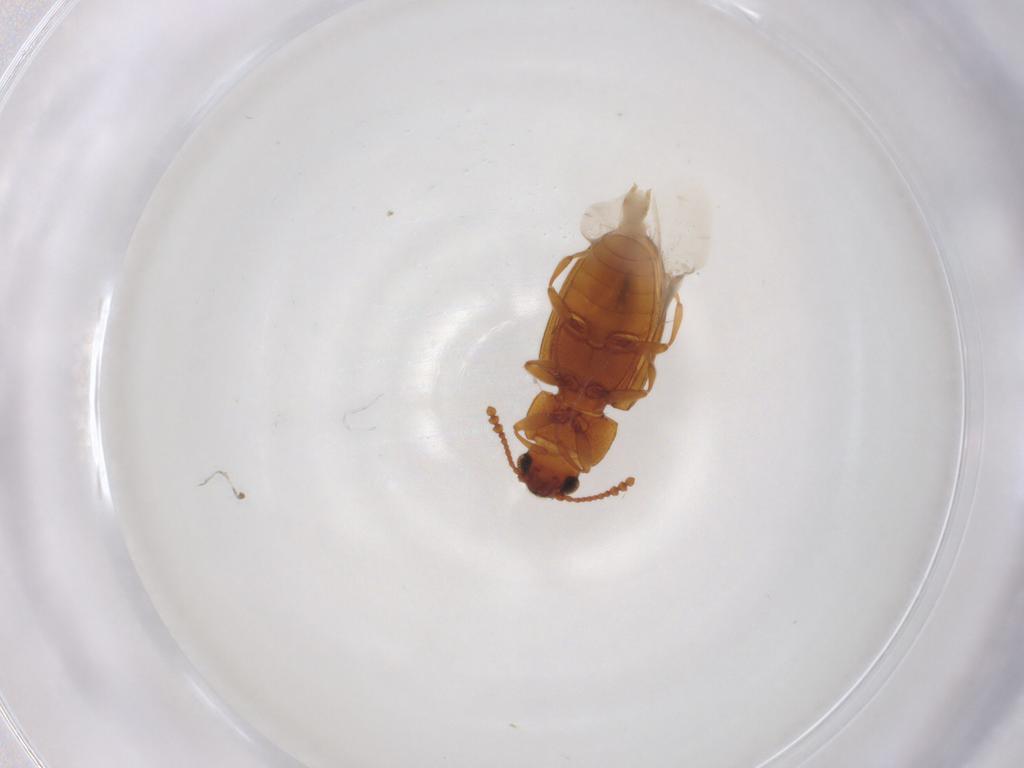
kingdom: Animalia
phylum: Arthropoda
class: Insecta
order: Coleoptera
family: Erotylidae
